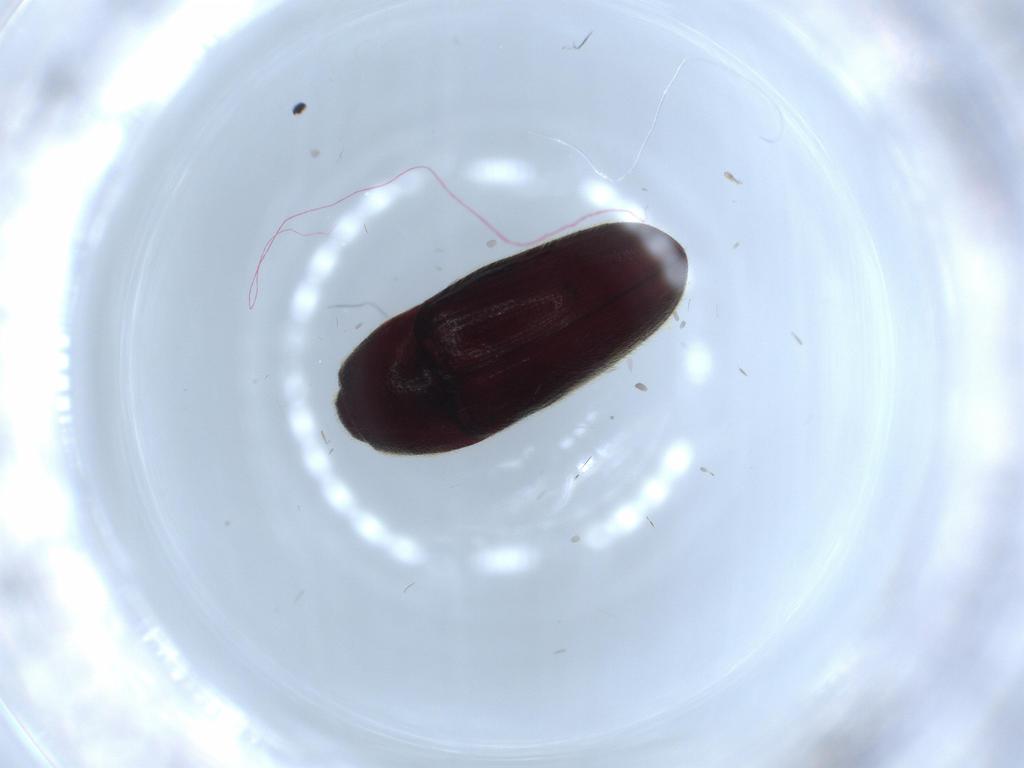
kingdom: Animalia
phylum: Arthropoda
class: Insecta
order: Coleoptera
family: Throscidae
